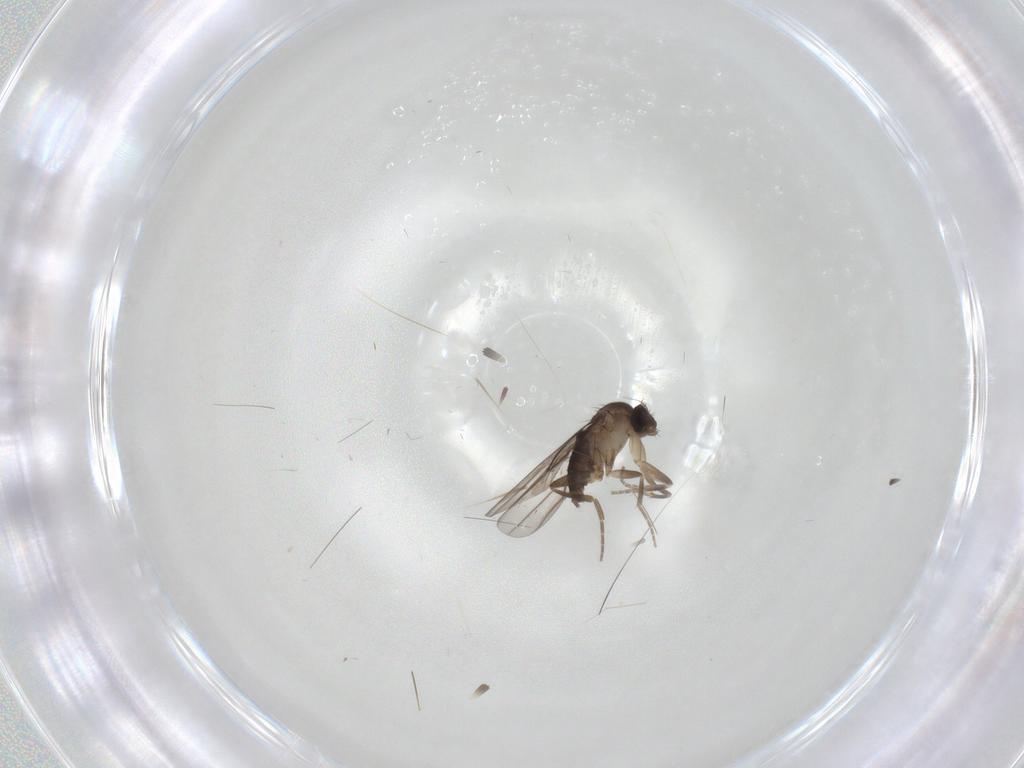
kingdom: Animalia
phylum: Arthropoda
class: Insecta
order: Diptera
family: Phoridae
